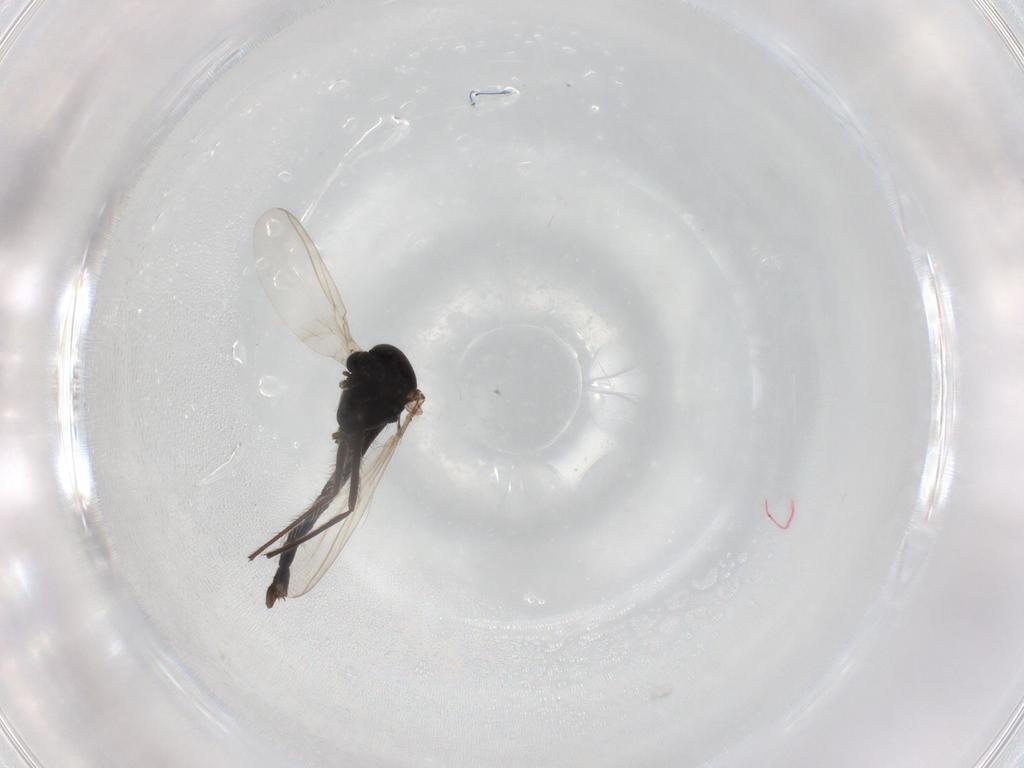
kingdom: Animalia
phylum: Arthropoda
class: Insecta
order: Diptera
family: Chironomidae
